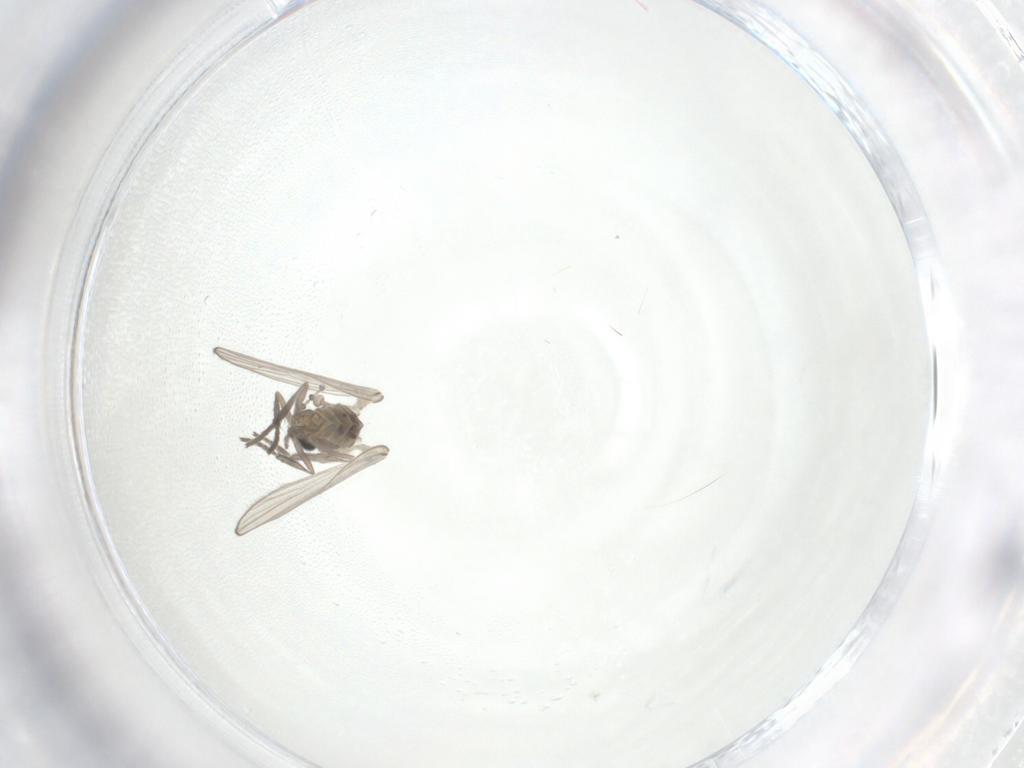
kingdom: Animalia
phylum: Arthropoda
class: Insecta
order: Diptera
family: Psychodidae
